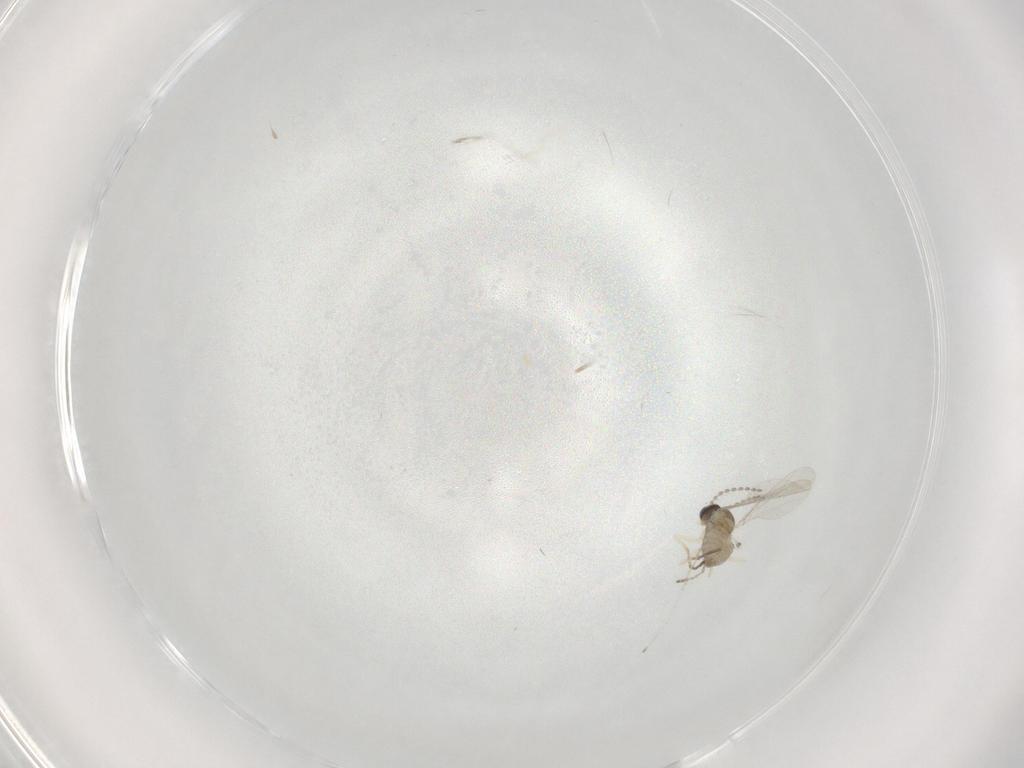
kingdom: Animalia
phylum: Arthropoda
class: Insecta
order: Diptera
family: Cecidomyiidae
